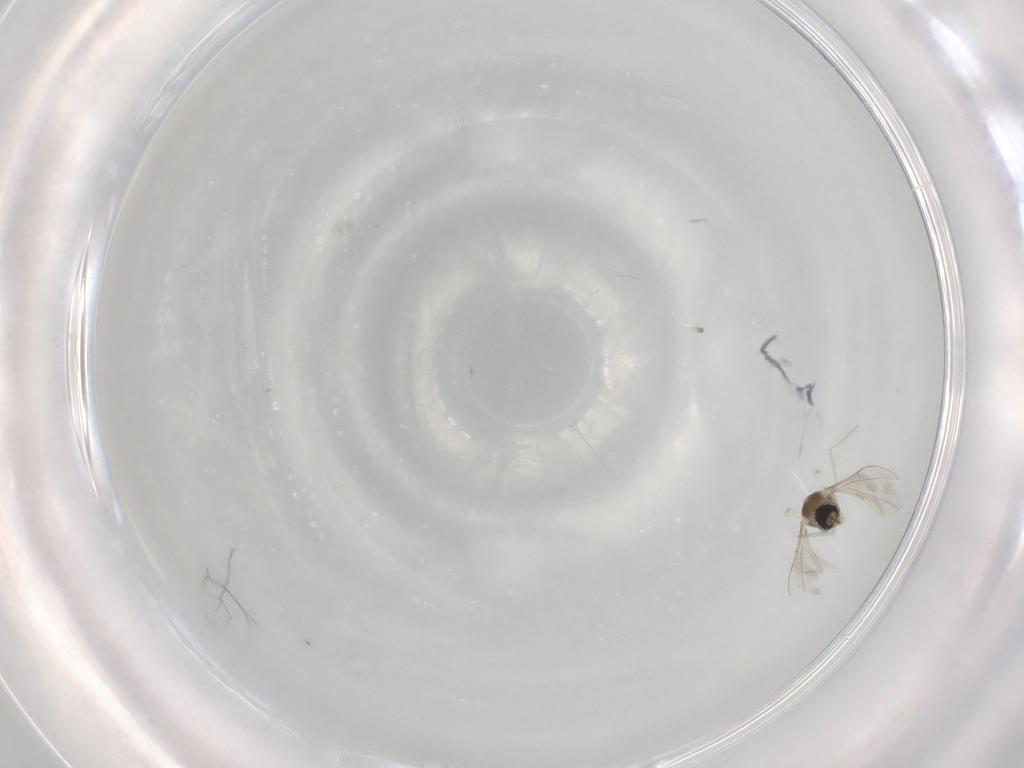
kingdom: Animalia
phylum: Arthropoda
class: Insecta
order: Diptera
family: Cecidomyiidae
